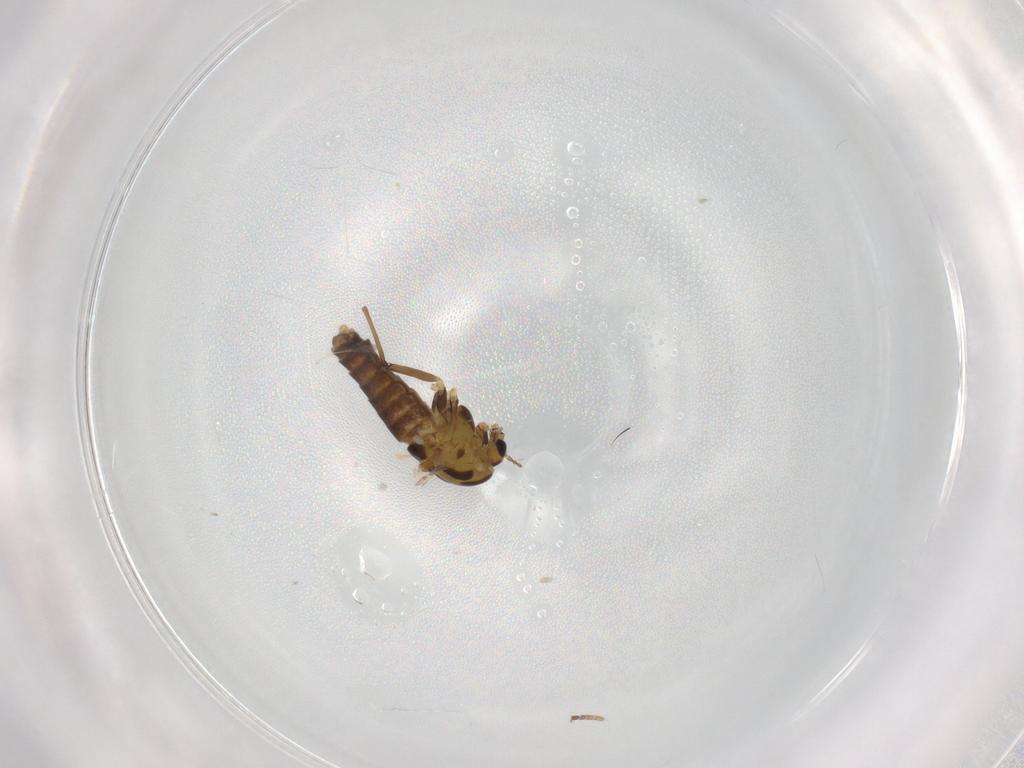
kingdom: Animalia
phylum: Arthropoda
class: Insecta
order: Diptera
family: Chironomidae
